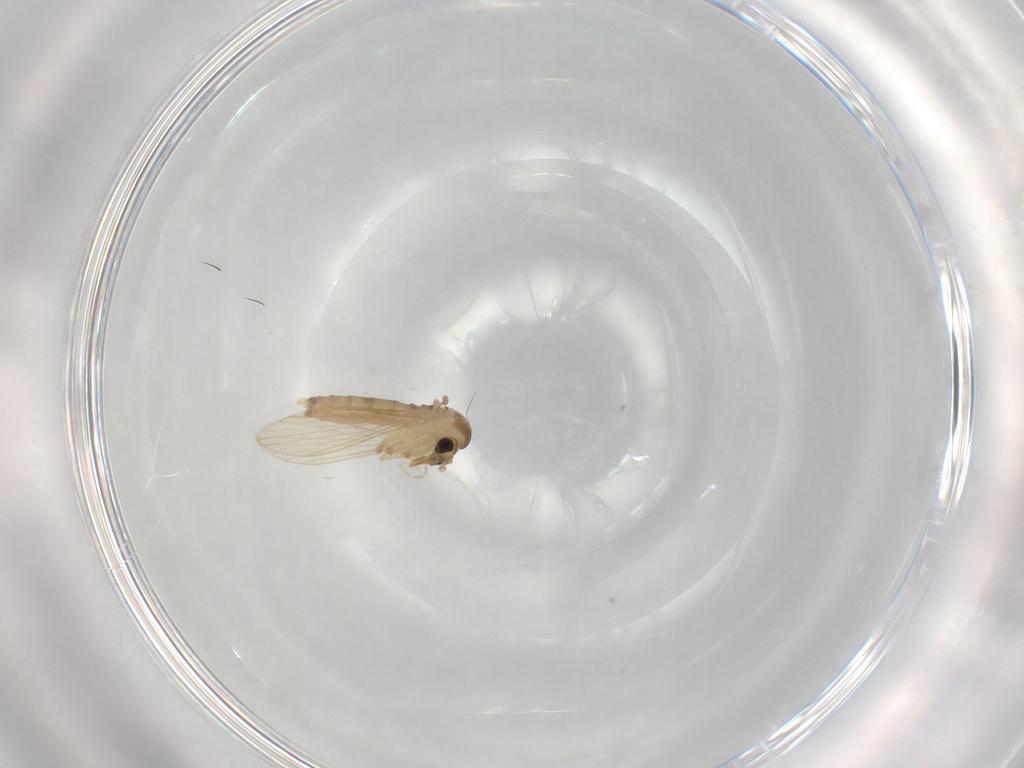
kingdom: Animalia
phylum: Arthropoda
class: Insecta
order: Diptera
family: Psychodidae
